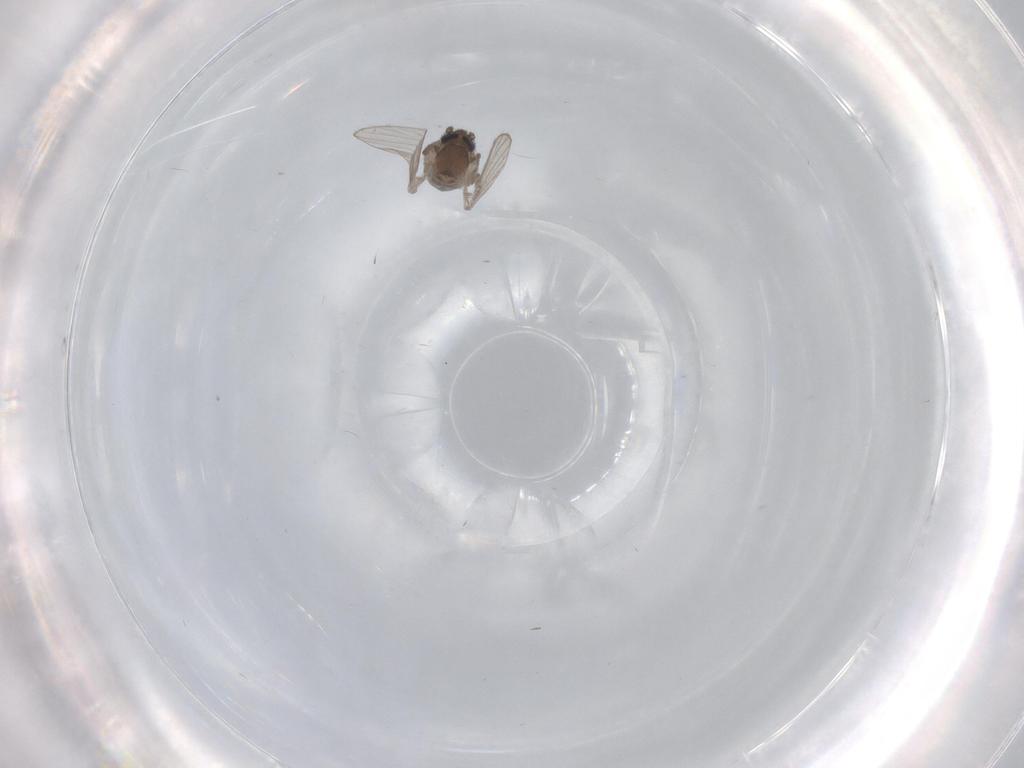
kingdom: Animalia
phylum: Arthropoda
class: Insecta
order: Diptera
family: Psychodidae
